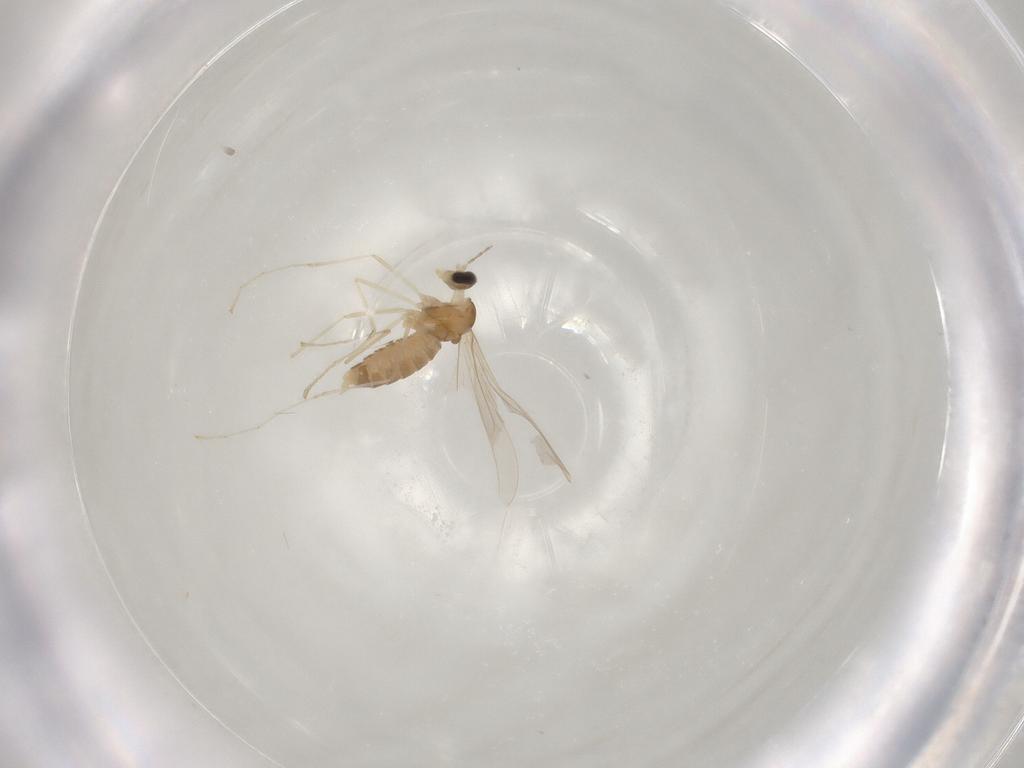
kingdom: Animalia
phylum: Arthropoda
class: Insecta
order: Diptera
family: Cecidomyiidae
